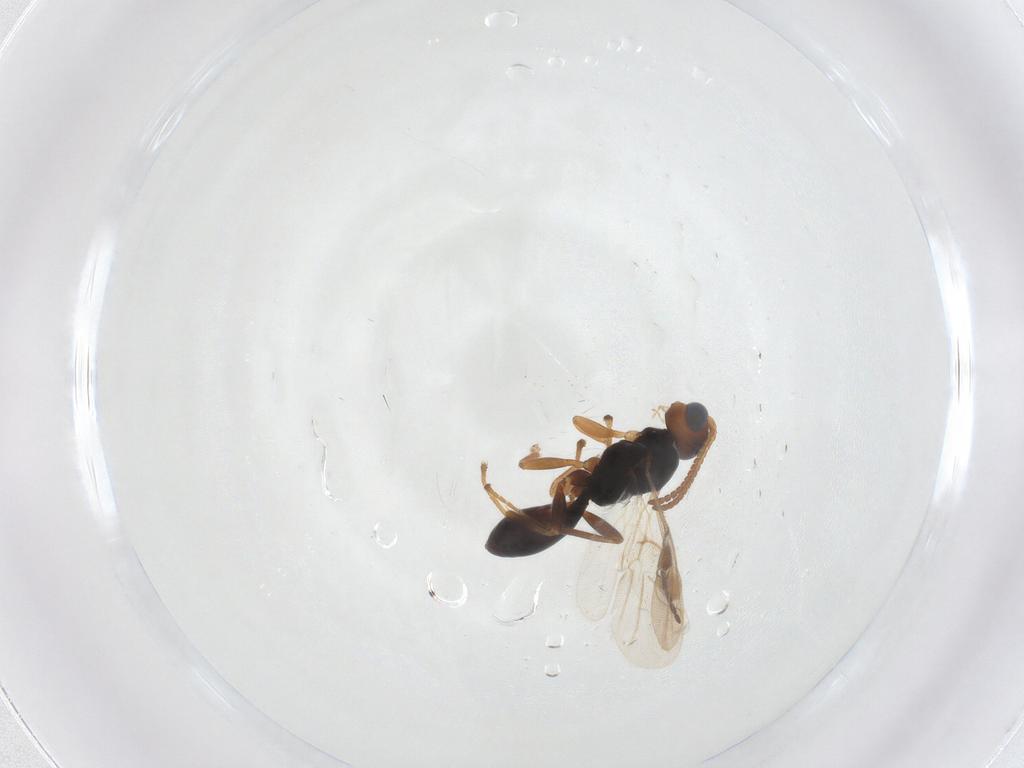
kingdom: Animalia
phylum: Arthropoda
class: Insecta
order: Hymenoptera
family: Braconidae
